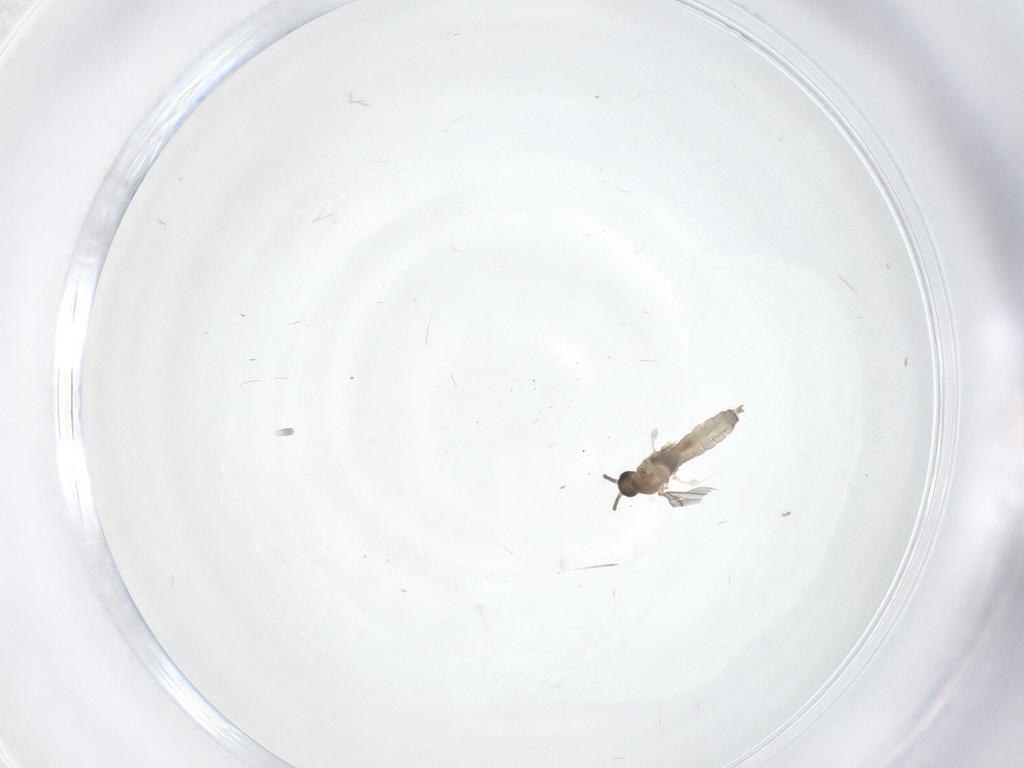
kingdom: Animalia
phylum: Arthropoda
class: Insecta
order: Diptera
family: Cecidomyiidae
